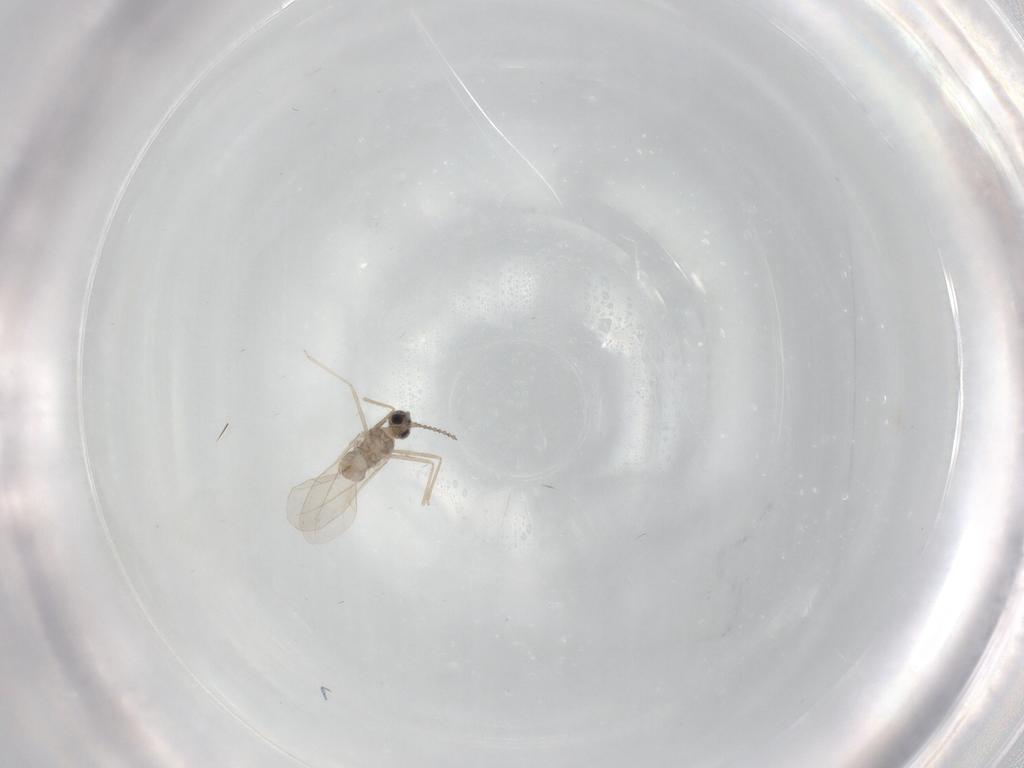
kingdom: Animalia
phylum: Arthropoda
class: Insecta
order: Diptera
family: Cecidomyiidae
